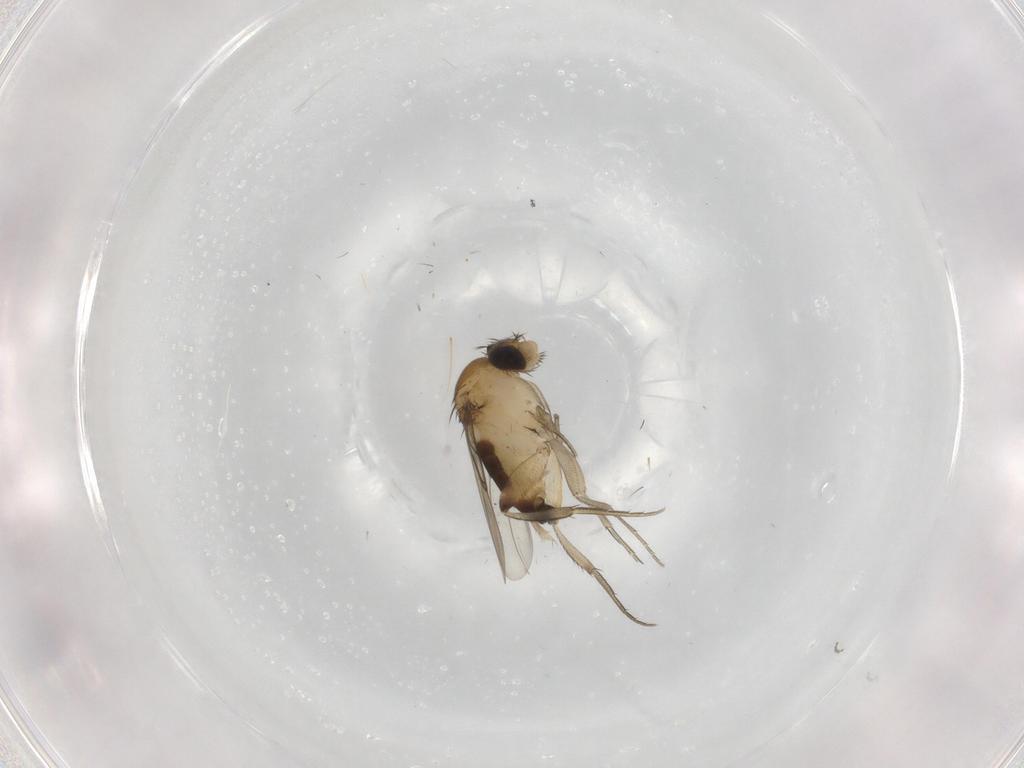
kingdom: Animalia
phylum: Arthropoda
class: Insecta
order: Diptera
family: Phoridae
